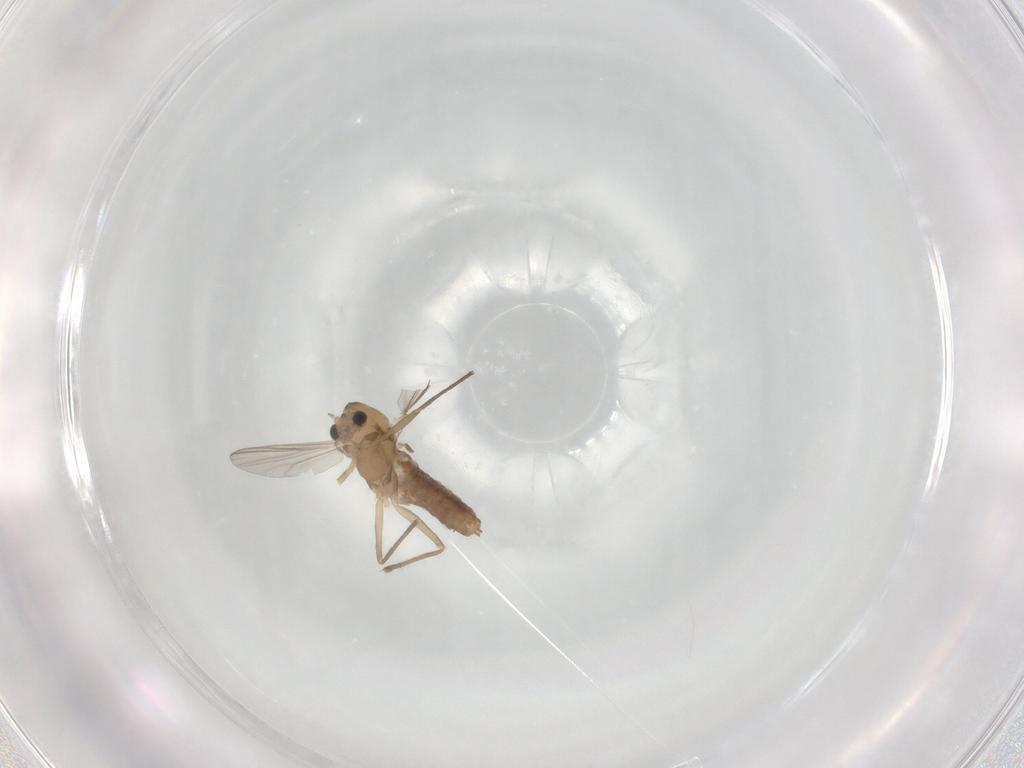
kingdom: Animalia
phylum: Arthropoda
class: Insecta
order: Diptera
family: Chironomidae
